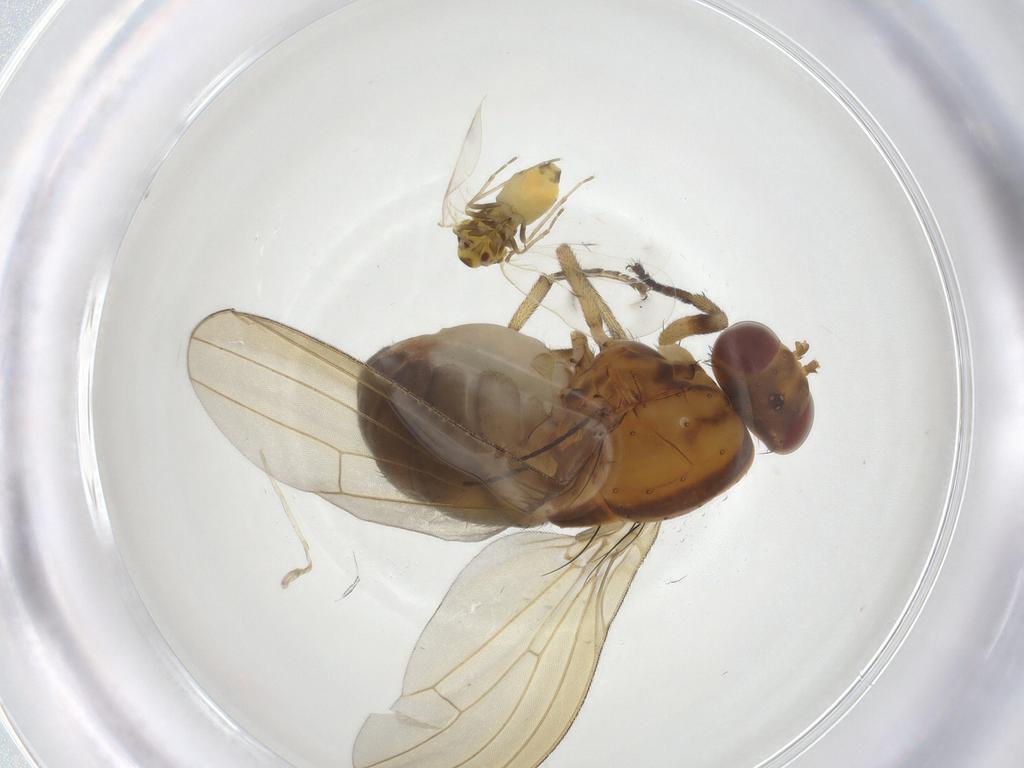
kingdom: Animalia
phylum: Arthropoda
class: Insecta
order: Diptera
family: Lauxaniidae
